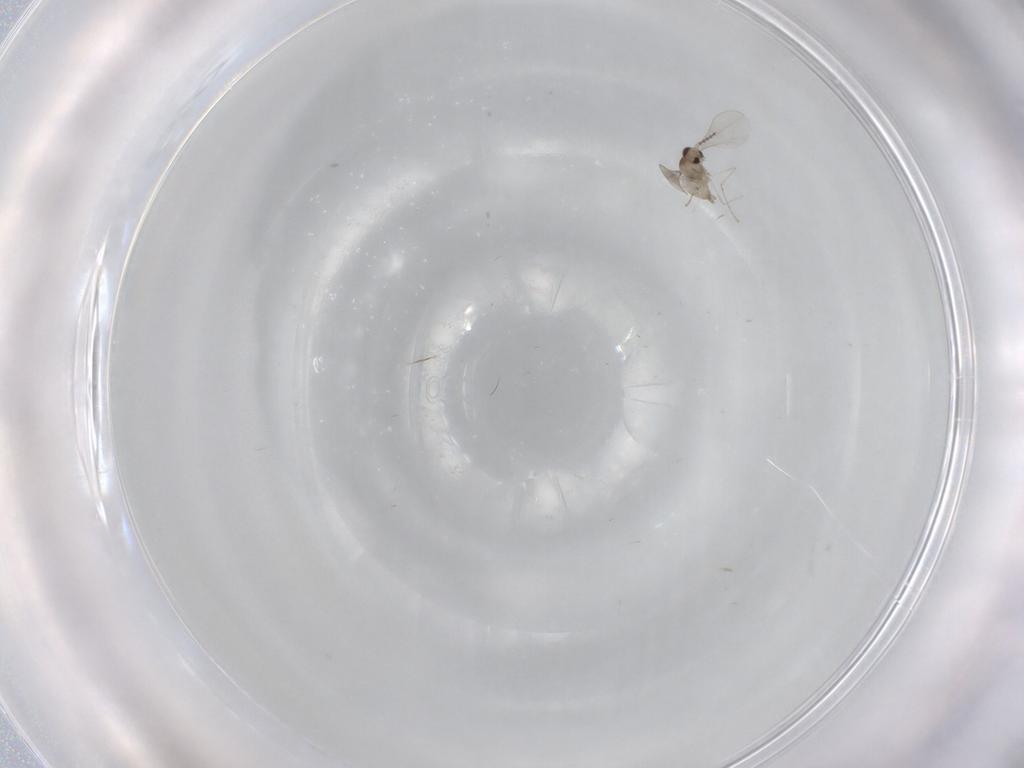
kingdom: Animalia
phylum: Arthropoda
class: Insecta
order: Diptera
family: Cecidomyiidae
